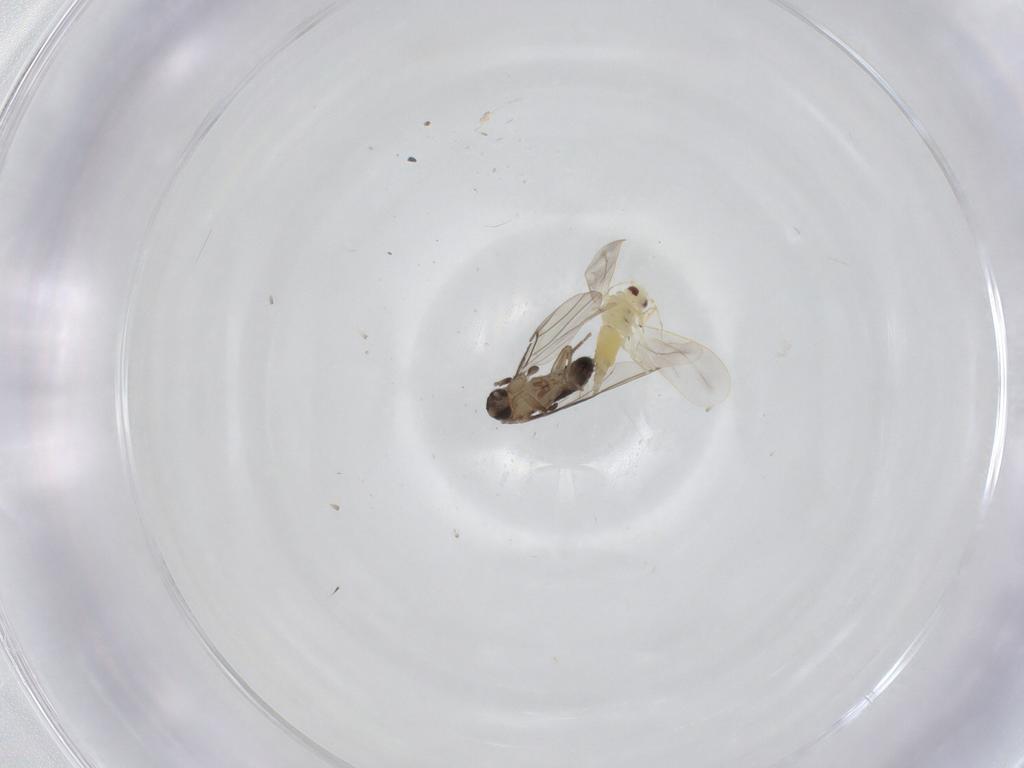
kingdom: Animalia
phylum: Arthropoda
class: Insecta
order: Diptera
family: Phoridae
